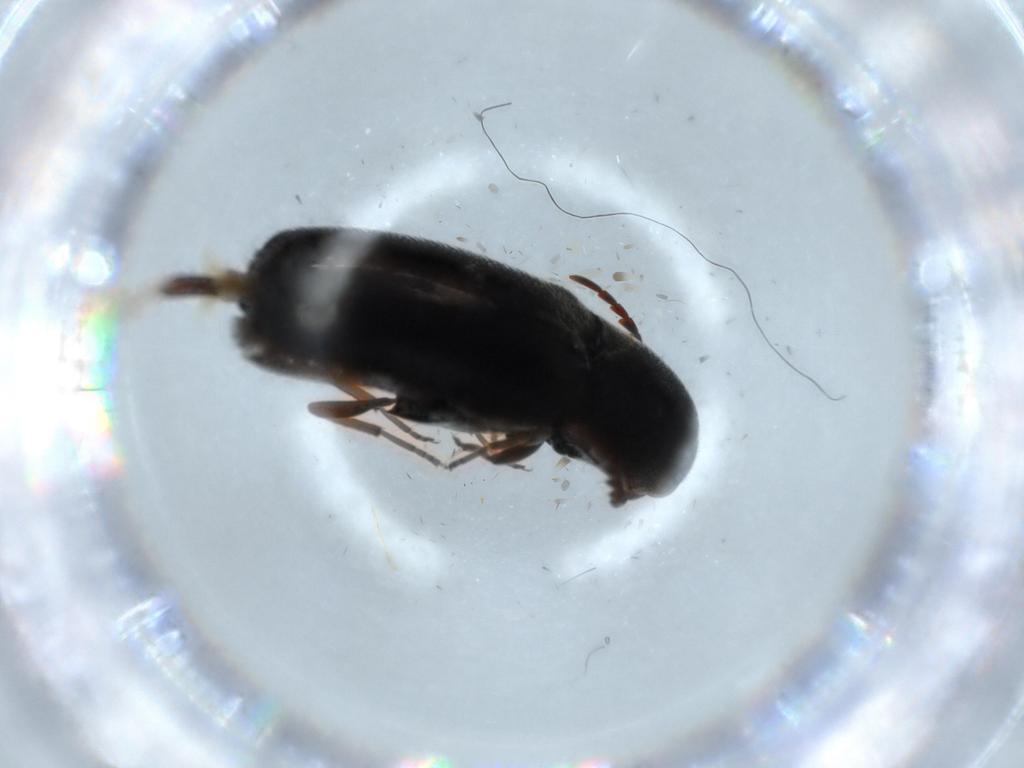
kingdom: Animalia
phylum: Arthropoda
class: Insecta
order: Coleoptera
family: Eucnemidae
